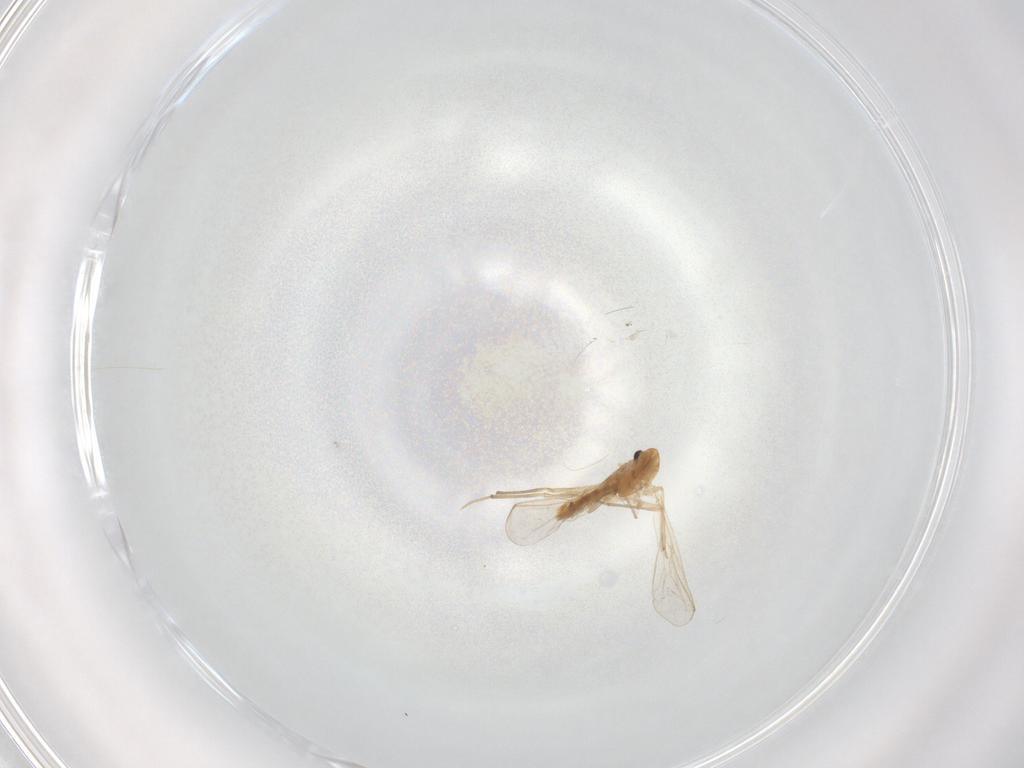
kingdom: Animalia
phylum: Arthropoda
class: Insecta
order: Diptera
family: Chironomidae
